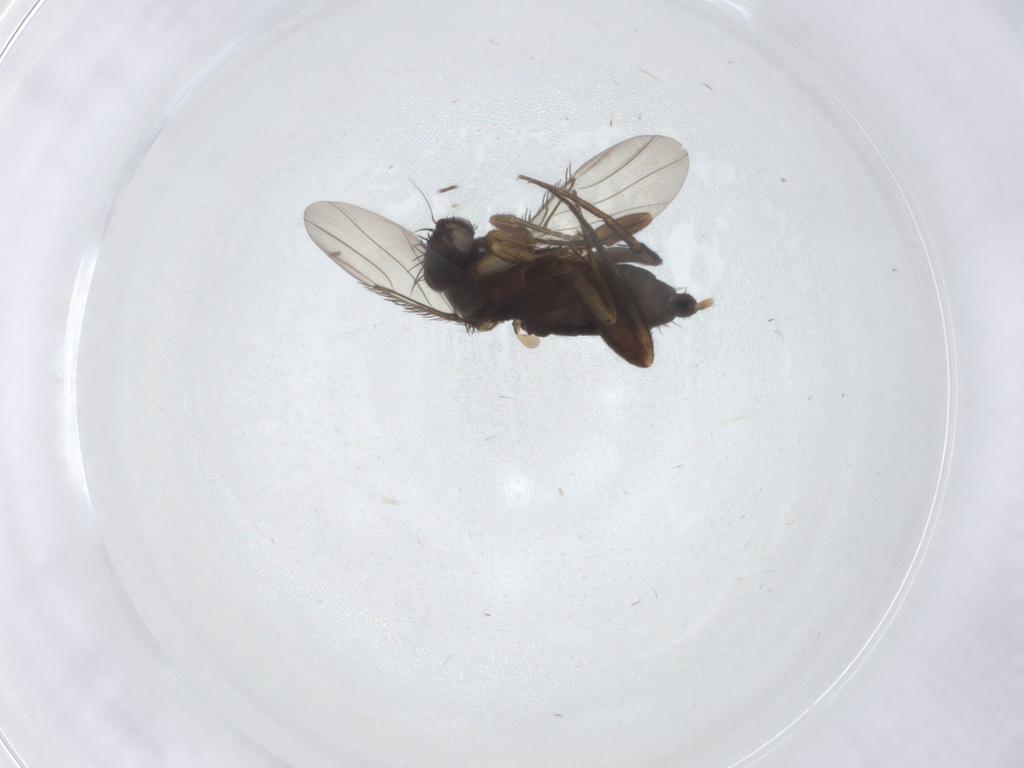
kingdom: Animalia
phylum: Arthropoda
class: Insecta
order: Diptera
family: Phoridae
